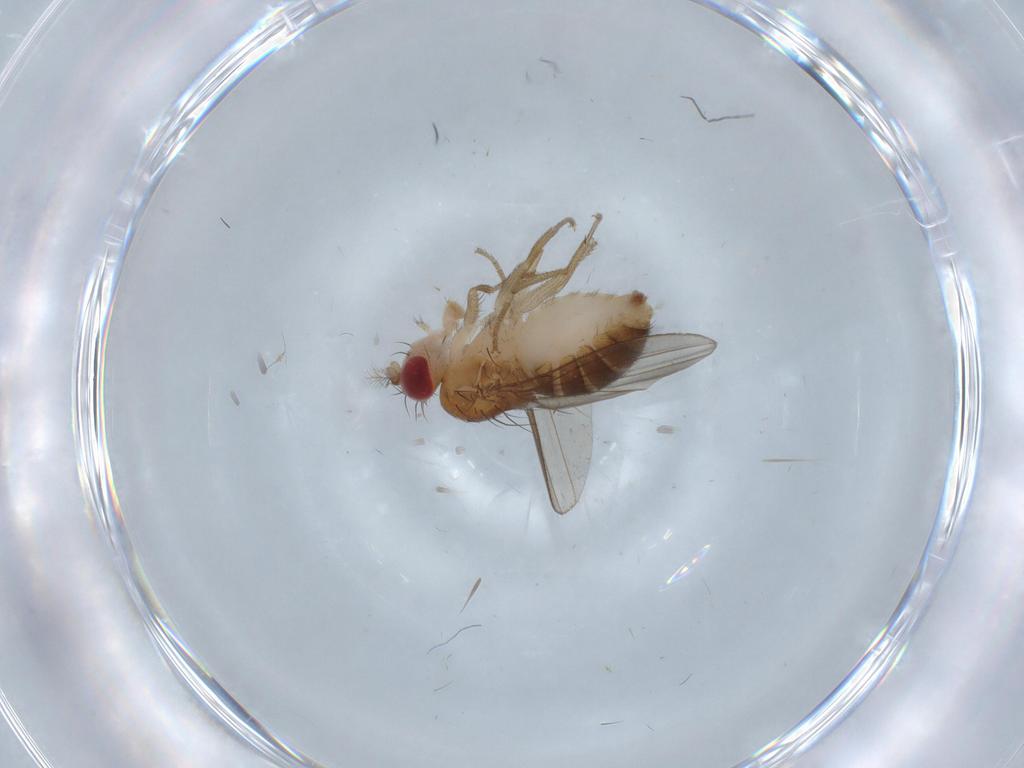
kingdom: Animalia
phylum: Arthropoda
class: Insecta
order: Diptera
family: Drosophilidae
